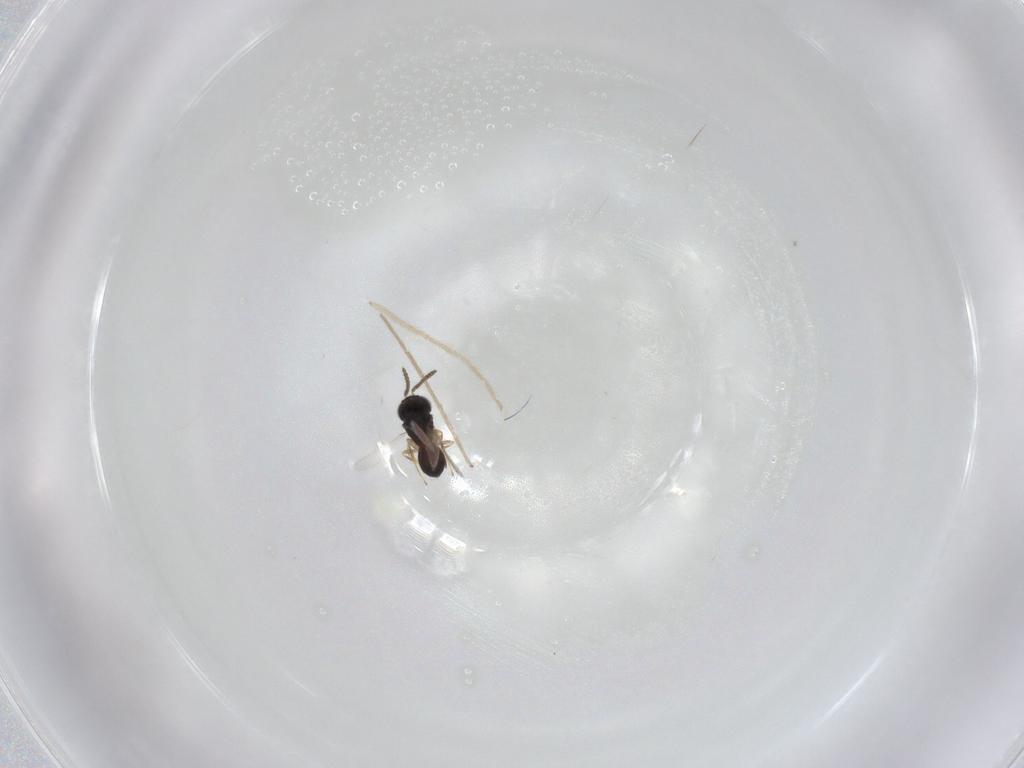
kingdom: Animalia
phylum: Arthropoda
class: Insecta
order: Hymenoptera
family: Scelionidae
